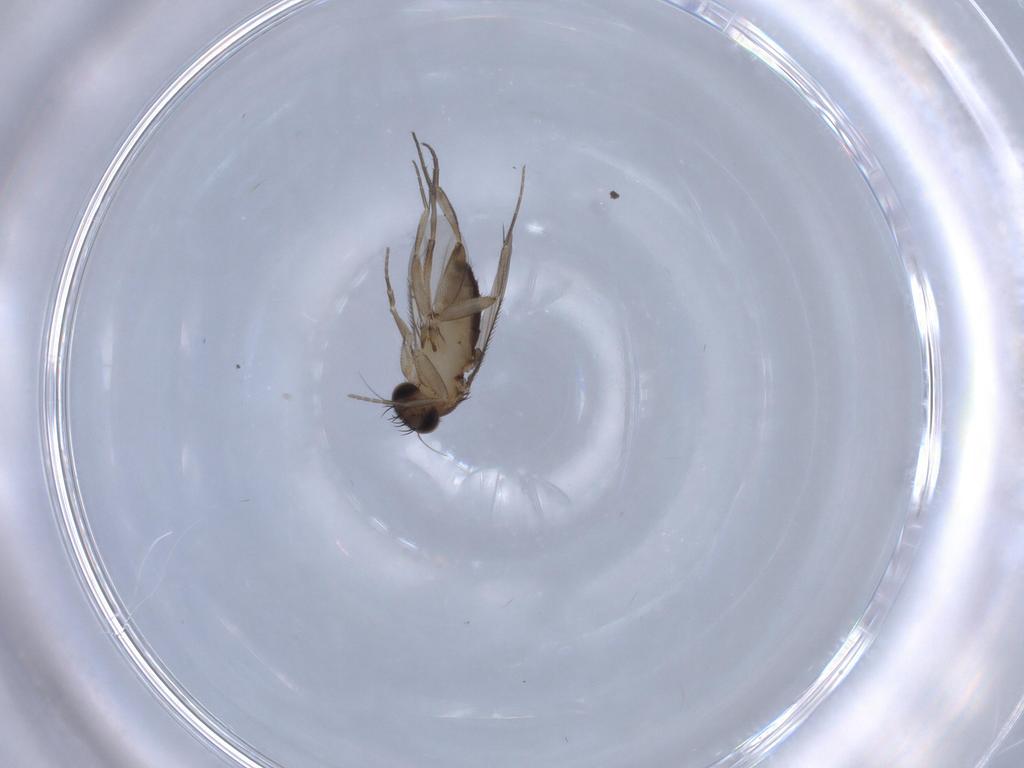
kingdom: Animalia
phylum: Arthropoda
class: Insecta
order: Diptera
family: Phoridae
